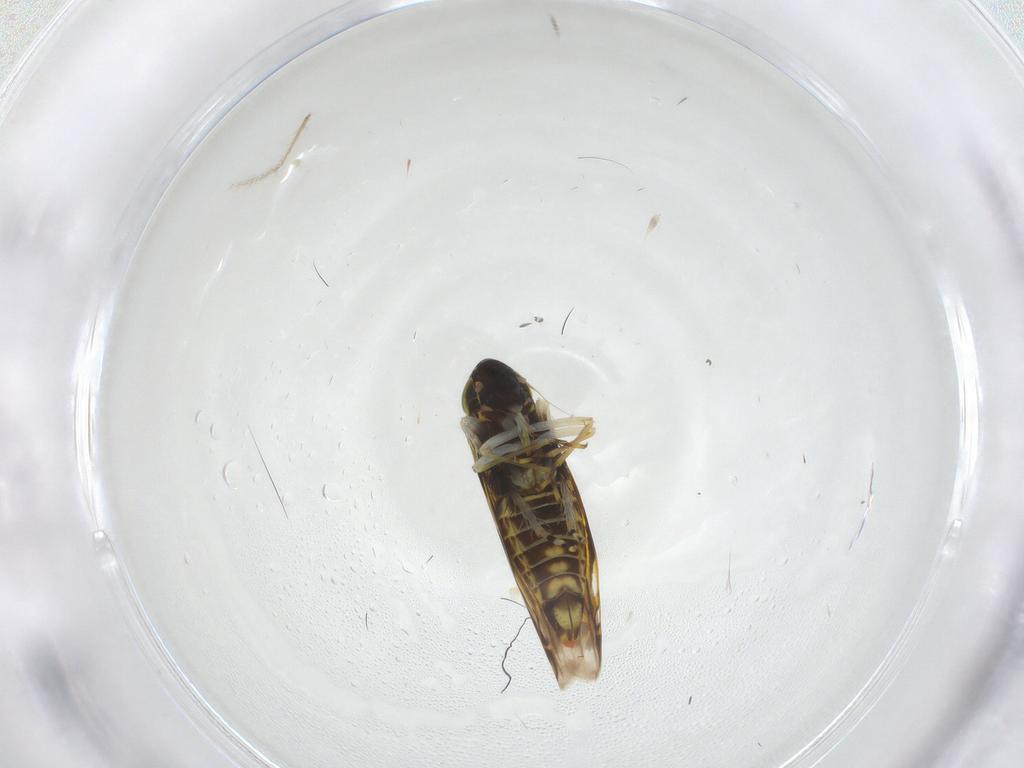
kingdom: Animalia
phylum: Arthropoda
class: Insecta
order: Hemiptera
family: Cicadellidae
